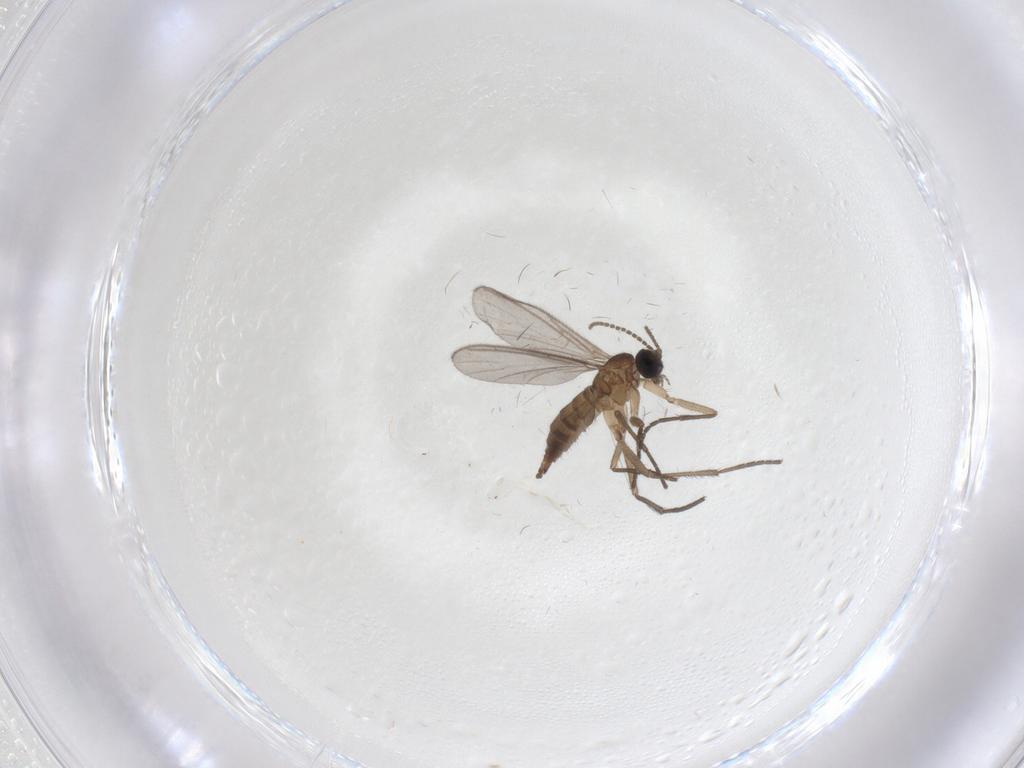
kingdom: Animalia
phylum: Arthropoda
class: Insecta
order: Diptera
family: Sciaridae
